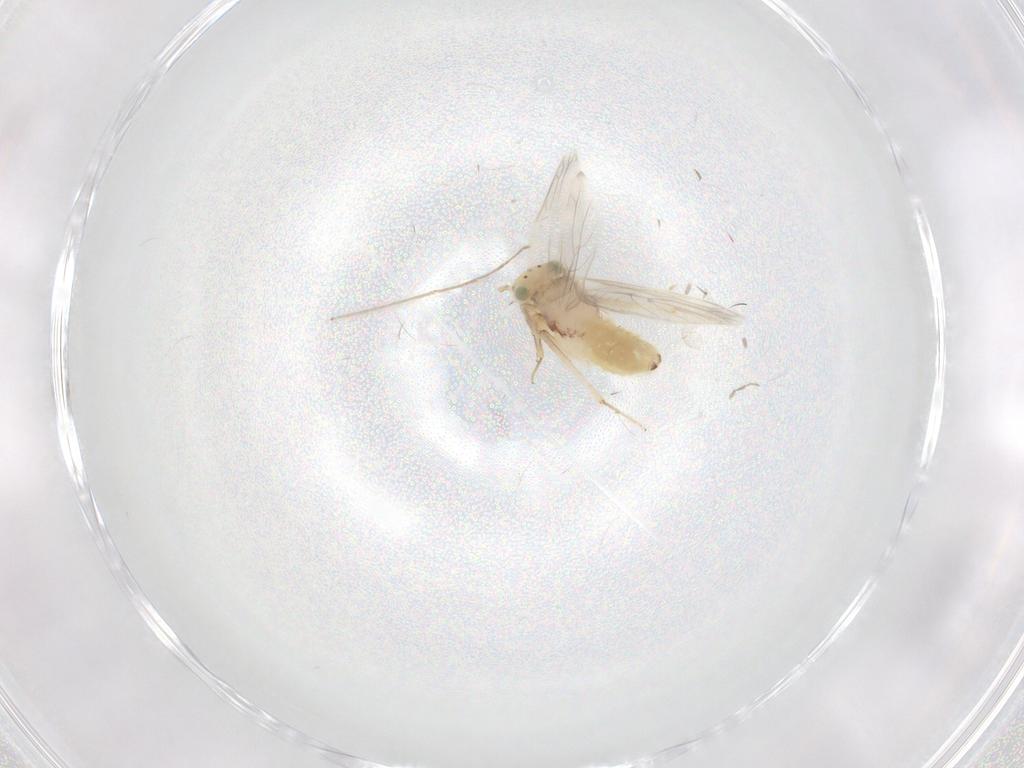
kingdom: Animalia
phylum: Arthropoda
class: Insecta
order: Psocodea
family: Lepidopsocidae
